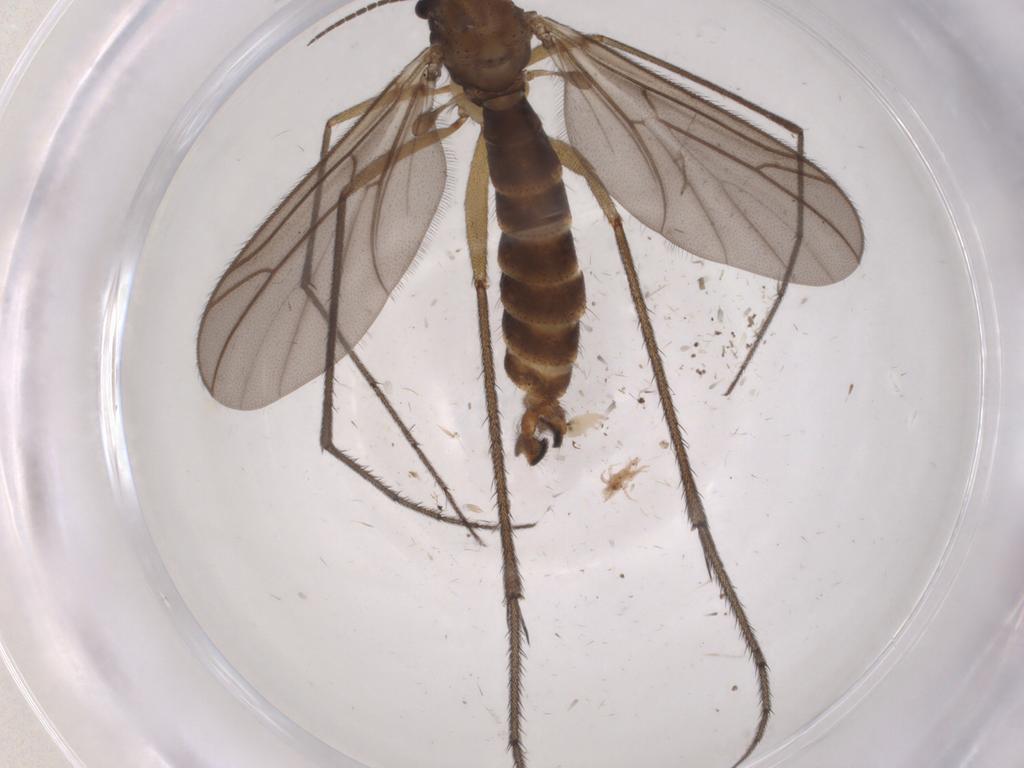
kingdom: Animalia
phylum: Arthropoda
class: Insecta
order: Diptera
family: Ditomyiidae
